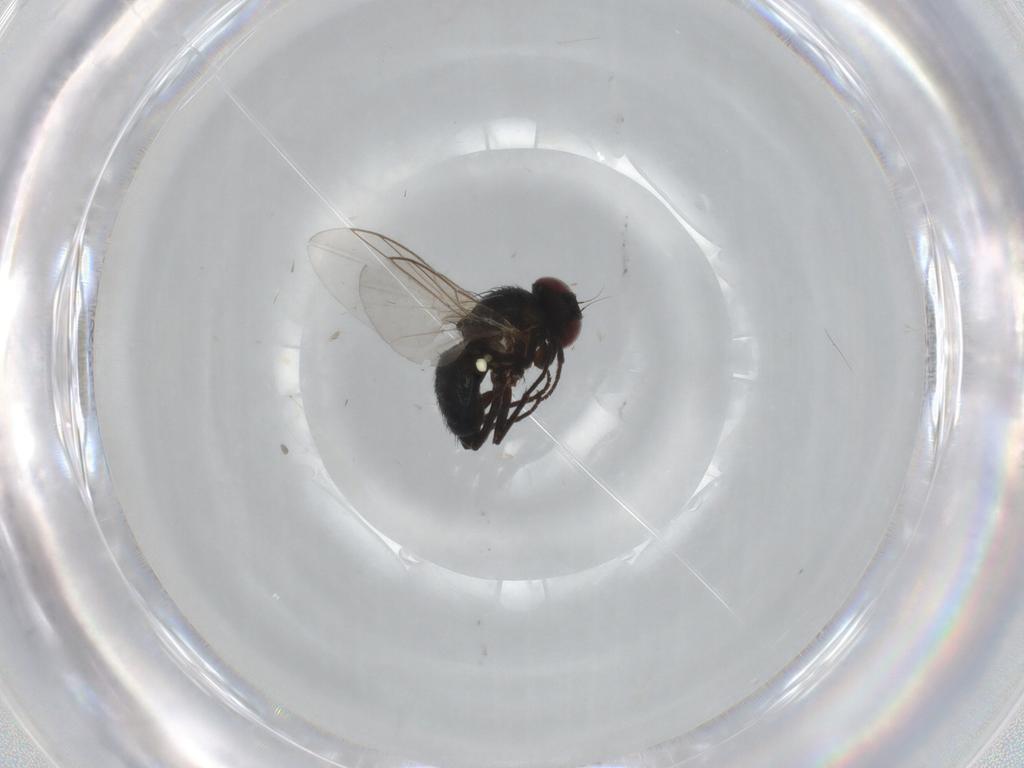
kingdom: Animalia
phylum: Arthropoda
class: Insecta
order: Diptera
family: Agromyzidae
